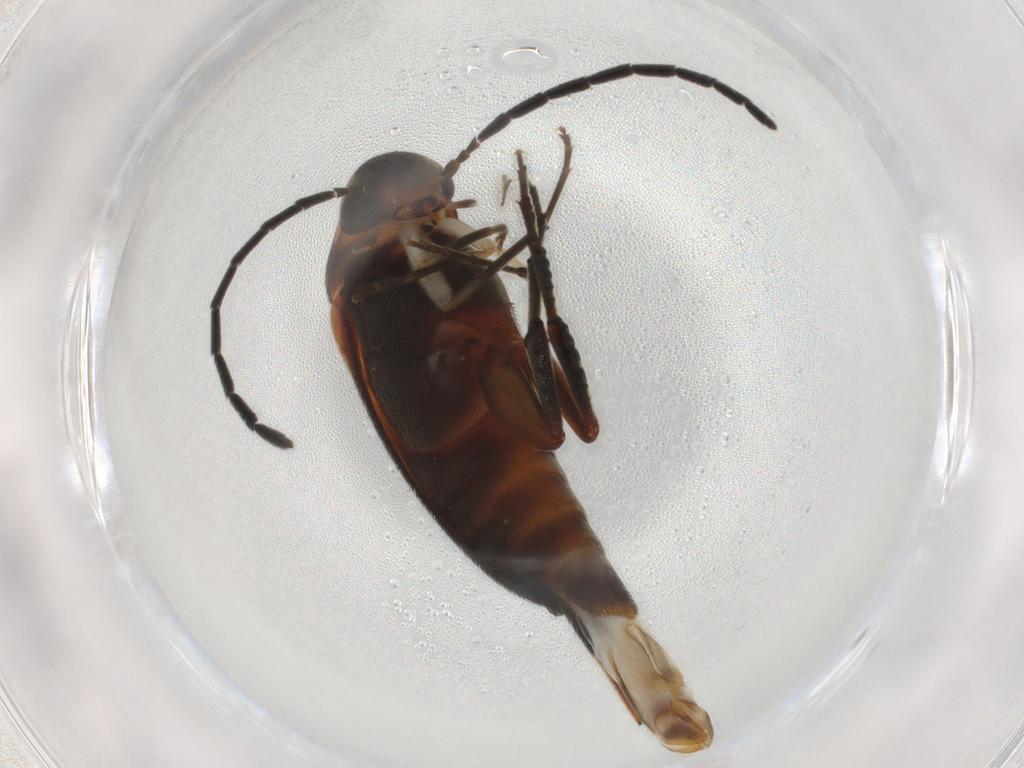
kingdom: Animalia
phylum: Arthropoda
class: Insecta
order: Coleoptera
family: Mordellidae
